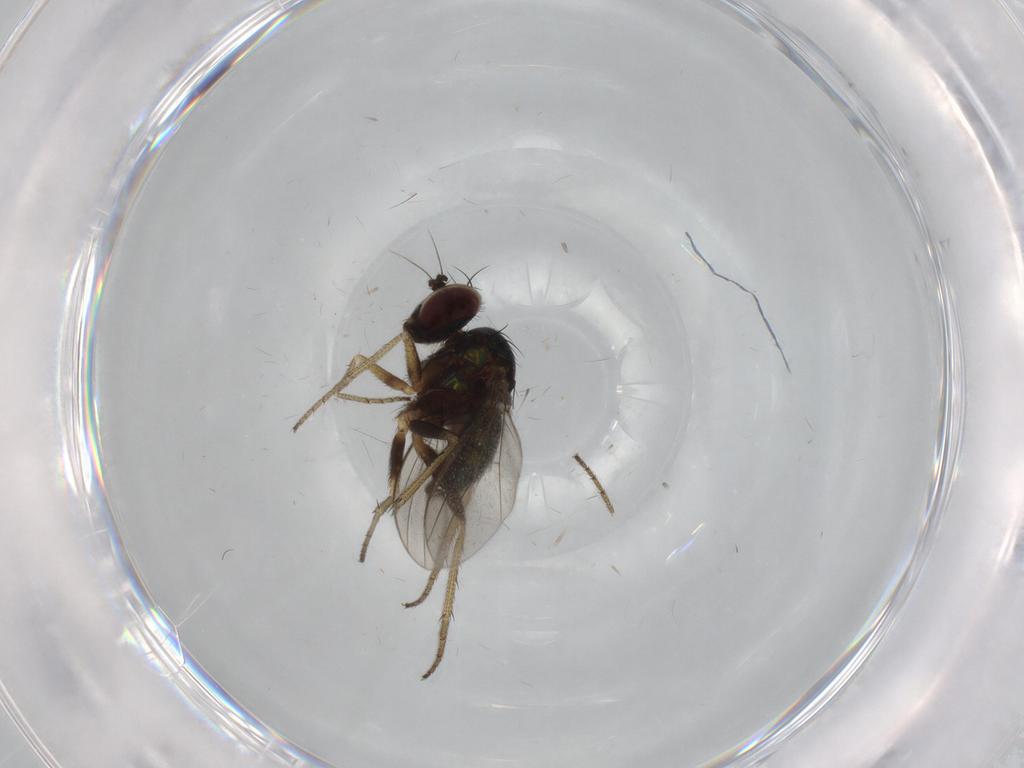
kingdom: Animalia
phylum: Arthropoda
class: Insecta
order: Diptera
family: Dolichopodidae
